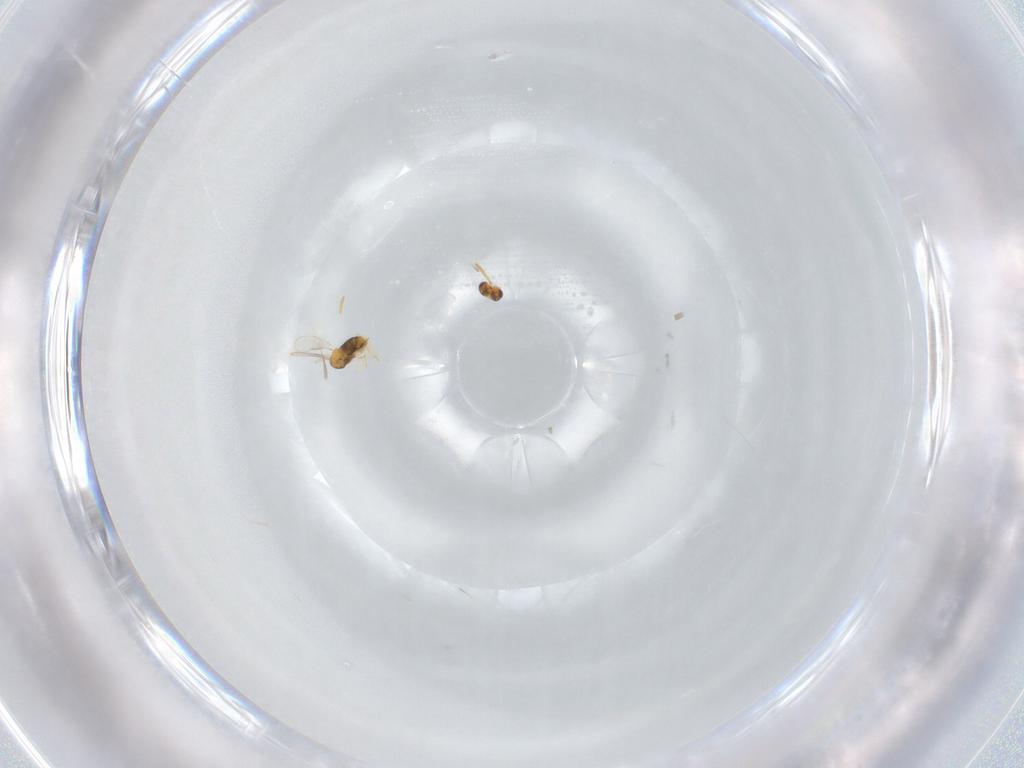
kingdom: Animalia
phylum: Arthropoda
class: Insecta
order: Hymenoptera
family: Aphelinidae
